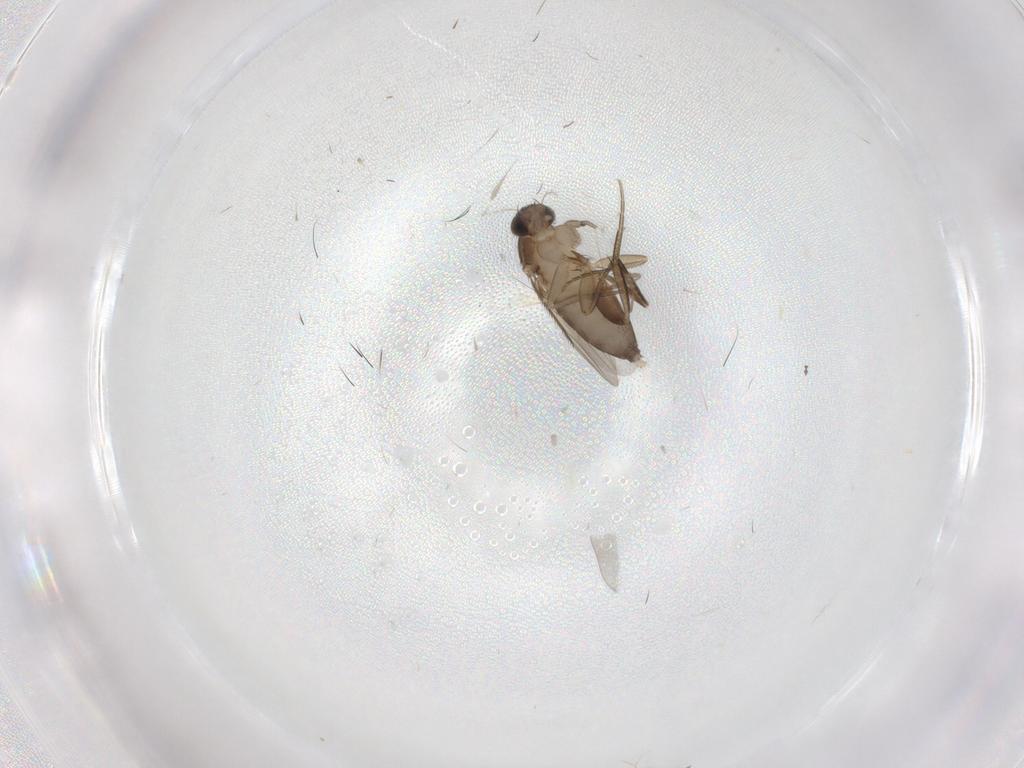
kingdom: Animalia
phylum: Arthropoda
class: Insecta
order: Diptera
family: Phoridae
